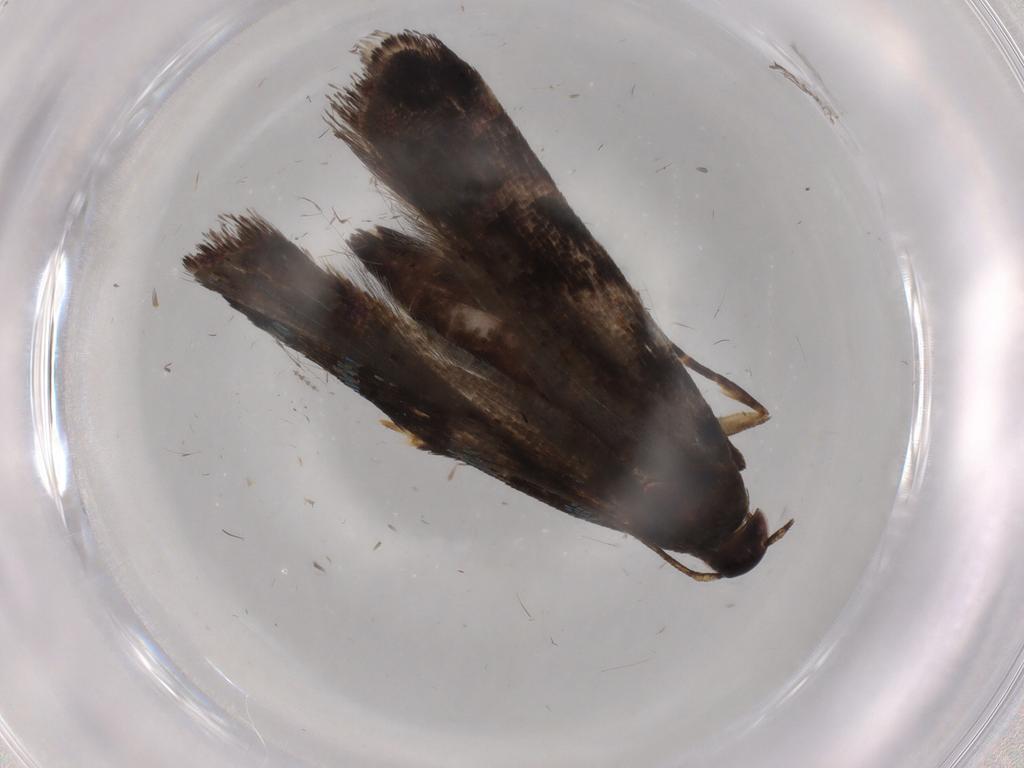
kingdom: Animalia
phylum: Arthropoda
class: Insecta
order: Lepidoptera
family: Gelechiidae
